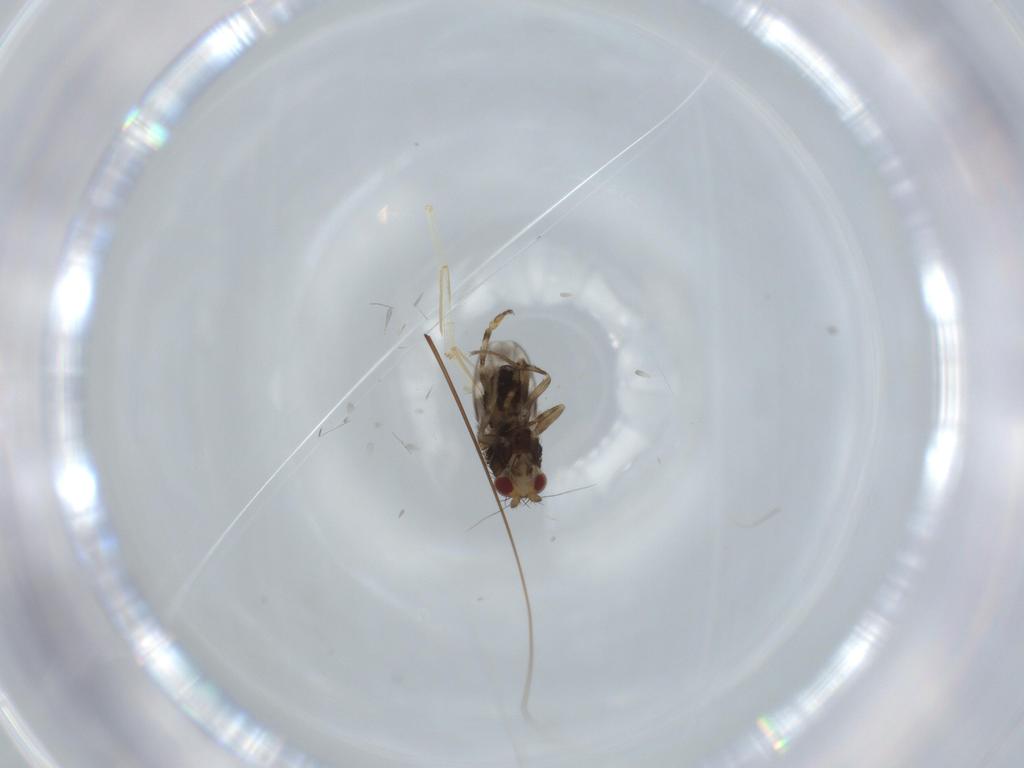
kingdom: Animalia
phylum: Arthropoda
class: Insecta
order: Diptera
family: Sphaeroceridae
